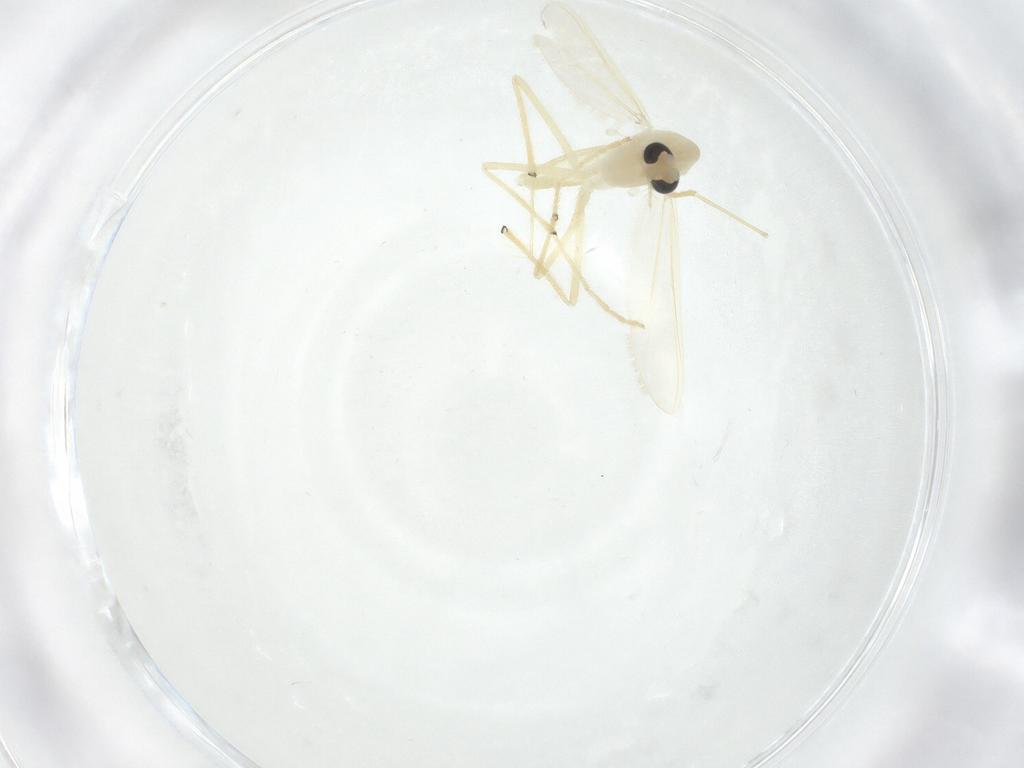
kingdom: Animalia
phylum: Arthropoda
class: Insecta
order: Diptera
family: Chironomidae
